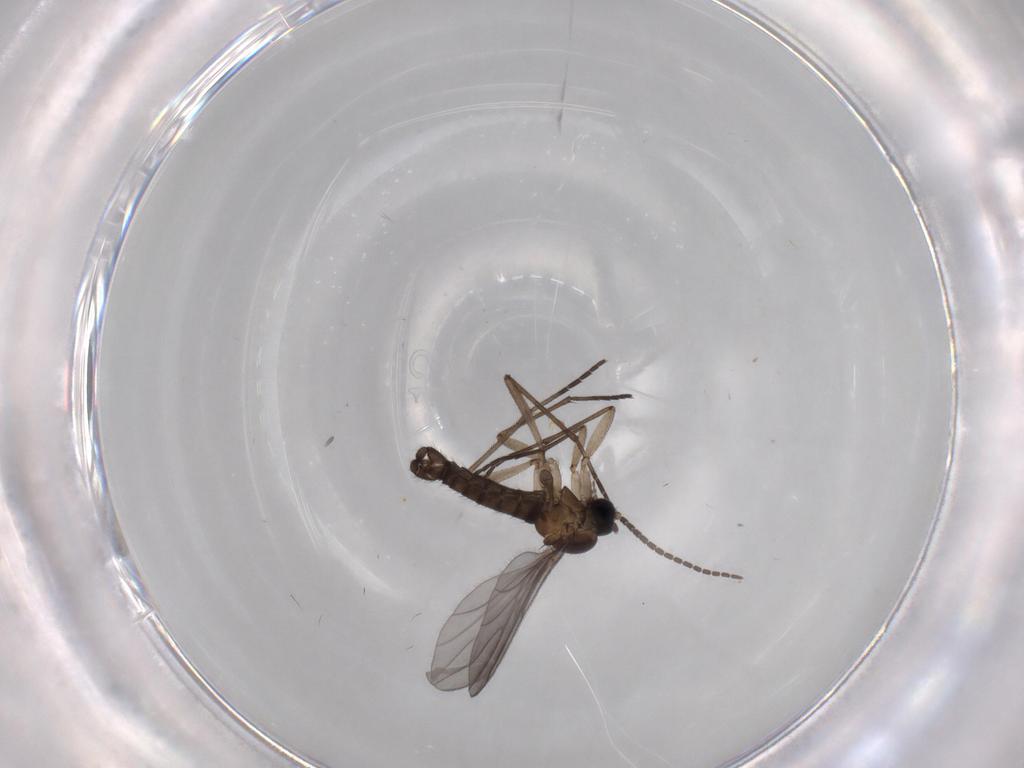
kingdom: Animalia
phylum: Arthropoda
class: Insecta
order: Diptera
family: Sciaridae
